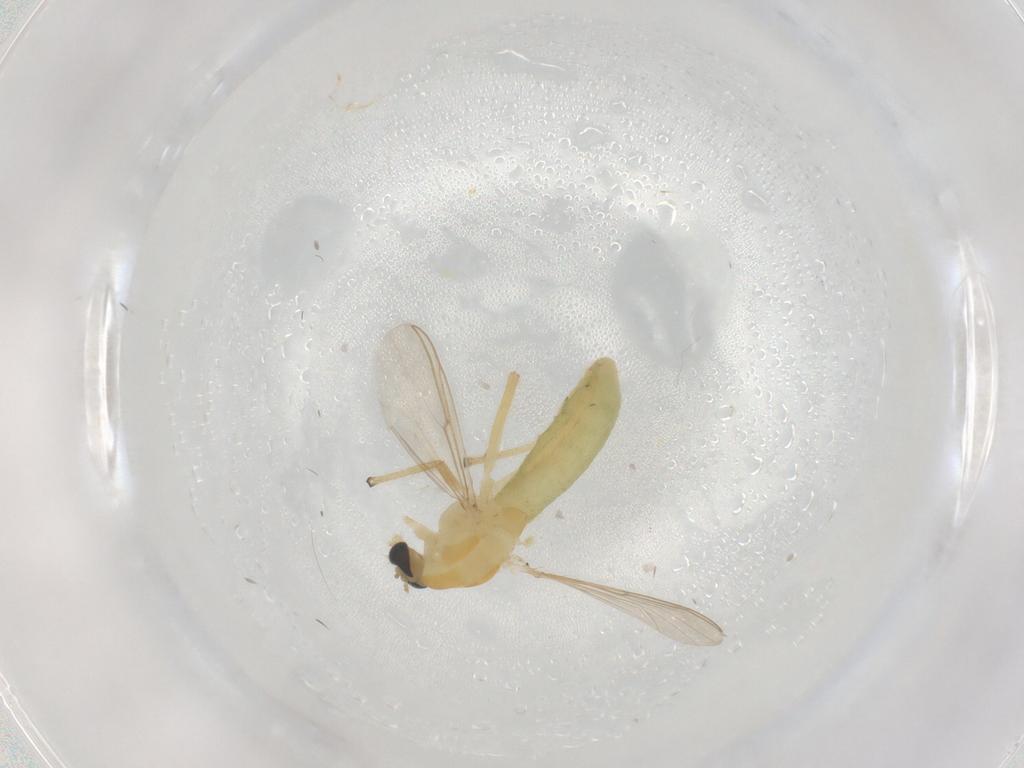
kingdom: Animalia
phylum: Arthropoda
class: Insecta
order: Diptera
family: Chironomidae
